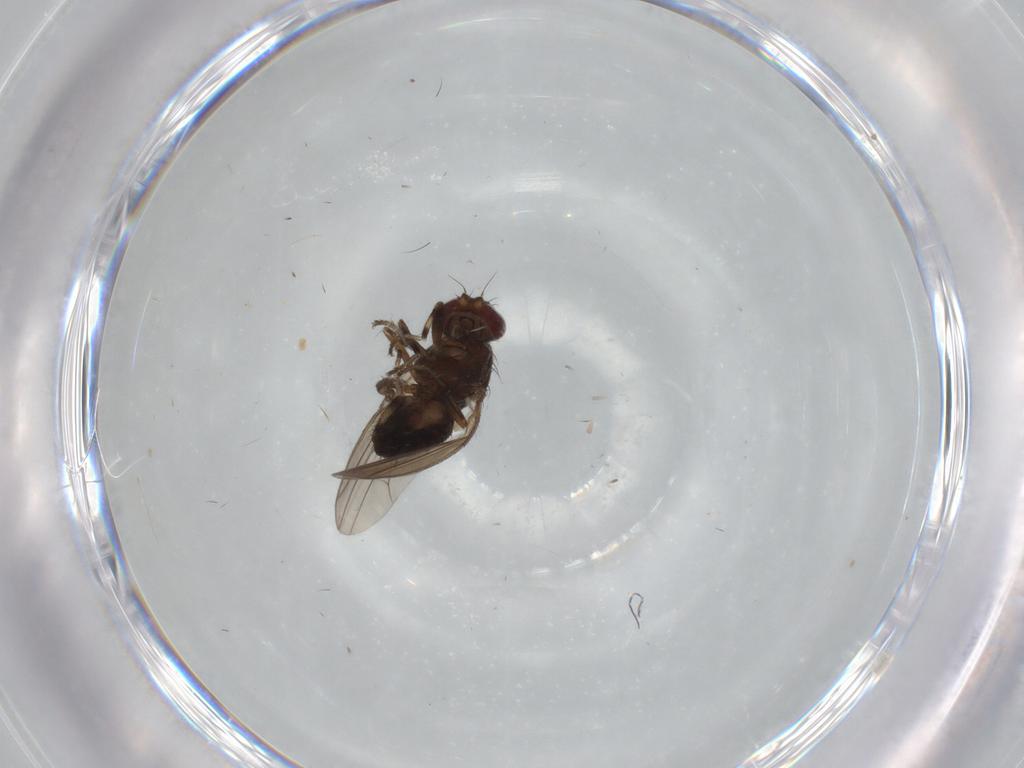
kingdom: Animalia
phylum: Arthropoda
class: Insecta
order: Diptera
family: Heleomyzidae
